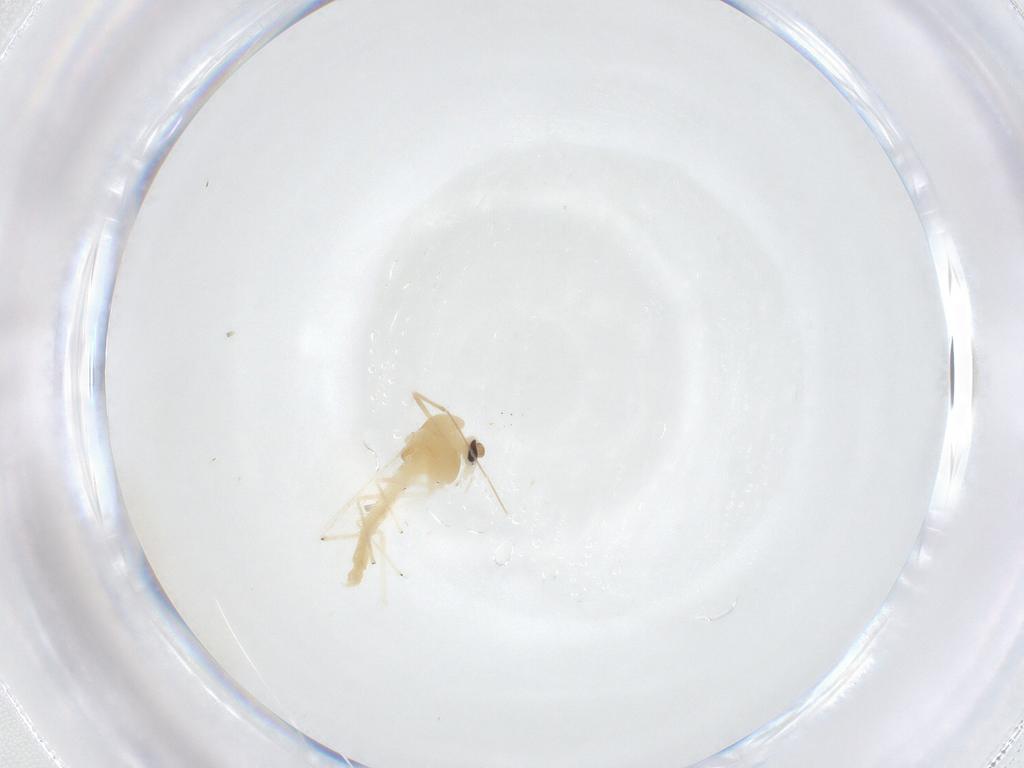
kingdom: Animalia
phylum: Arthropoda
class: Insecta
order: Diptera
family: Chironomidae
